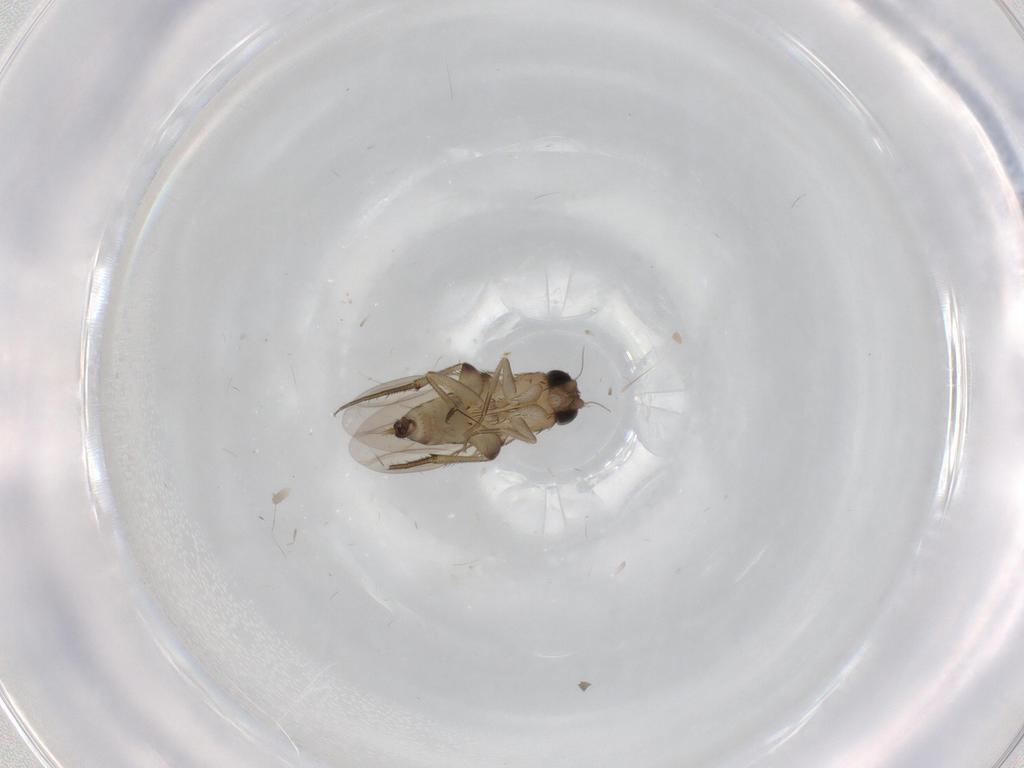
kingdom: Animalia
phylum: Arthropoda
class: Insecta
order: Diptera
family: Phoridae
